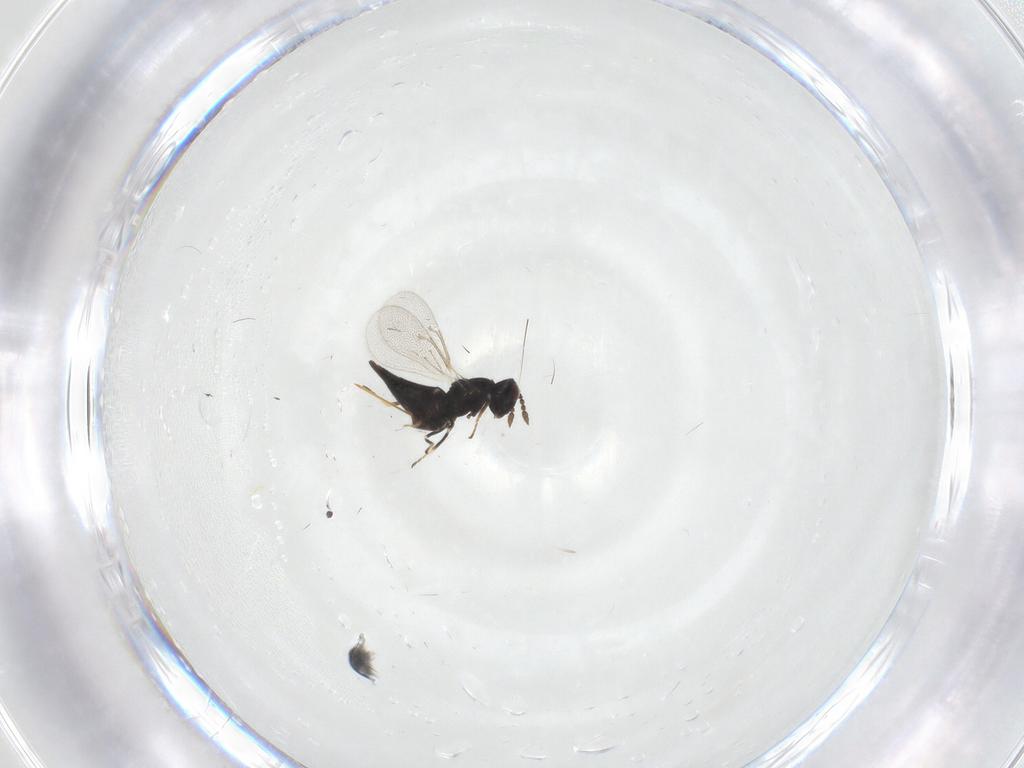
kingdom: Animalia
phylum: Arthropoda
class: Insecta
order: Hymenoptera
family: Eulophidae
